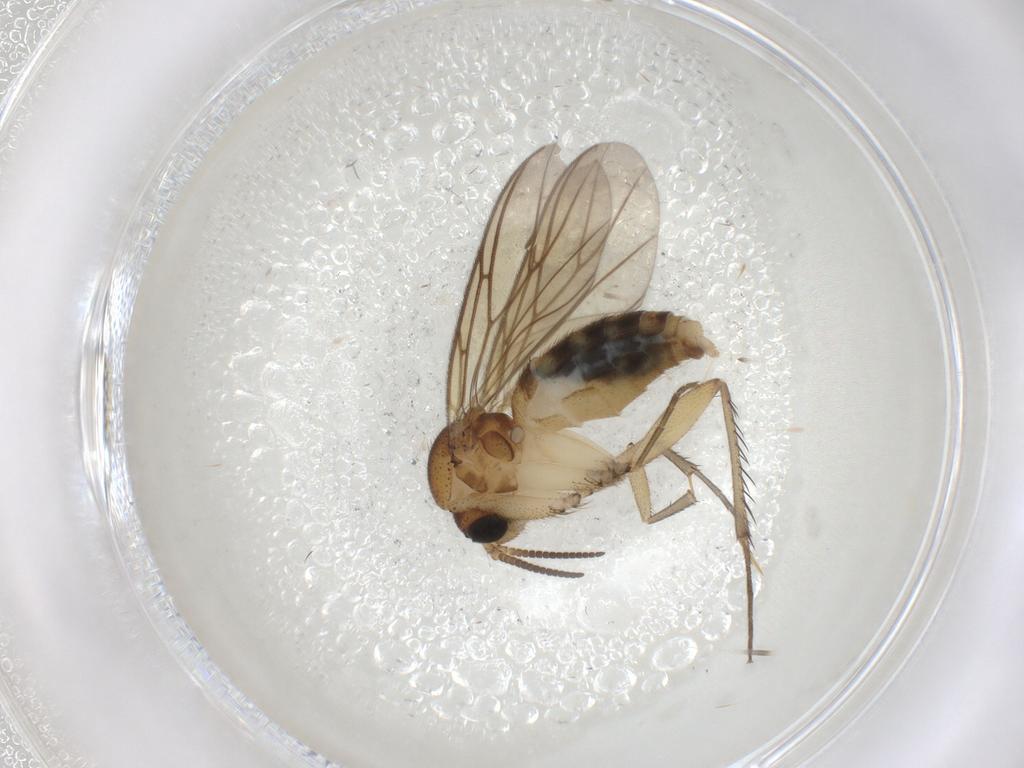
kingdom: Animalia
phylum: Arthropoda
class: Insecta
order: Diptera
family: Mycetophilidae
